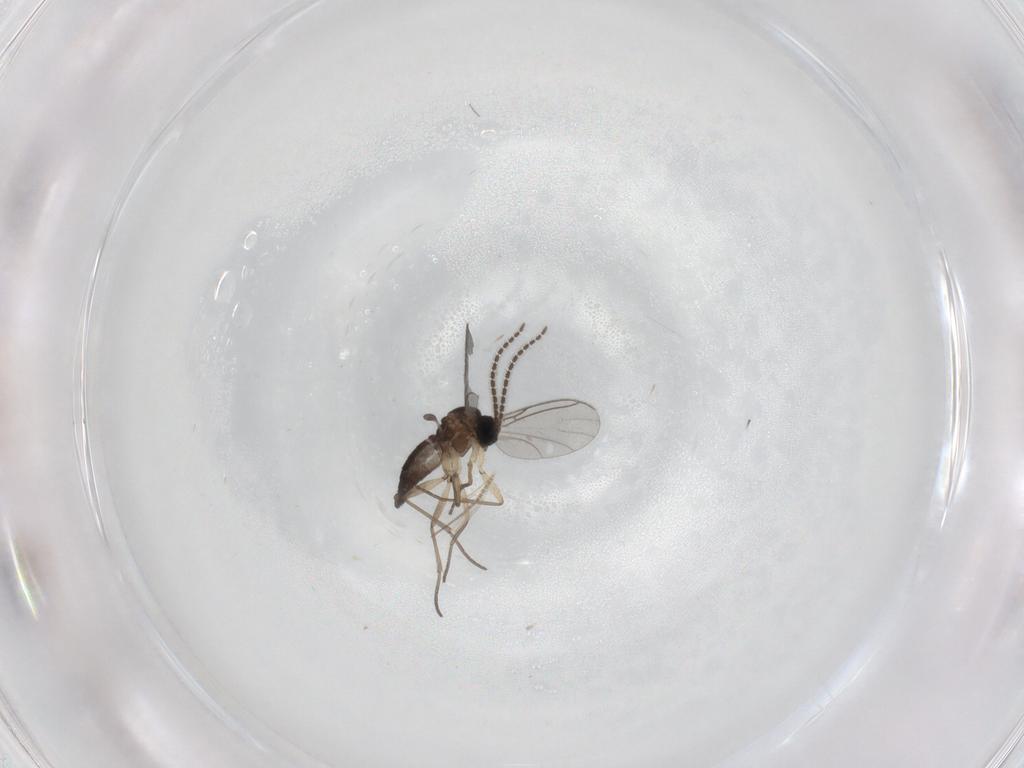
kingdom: Animalia
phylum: Arthropoda
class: Insecta
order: Diptera
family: Sciaridae
